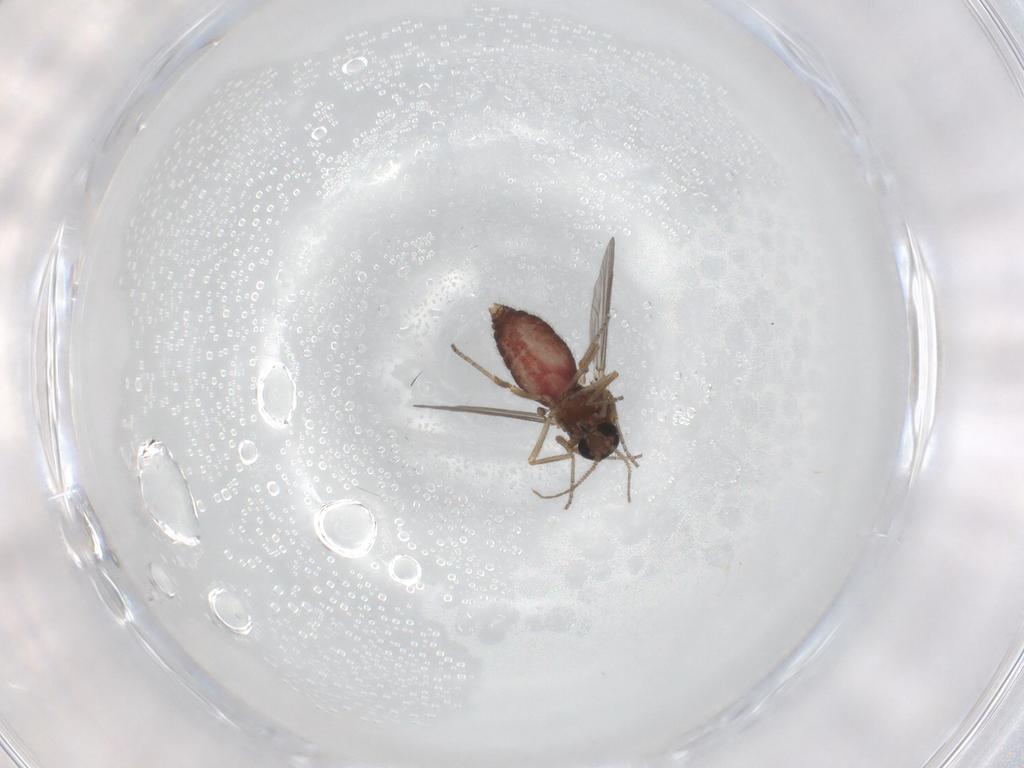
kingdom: Animalia
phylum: Arthropoda
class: Insecta
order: Diptera
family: Ceratopogonidae
